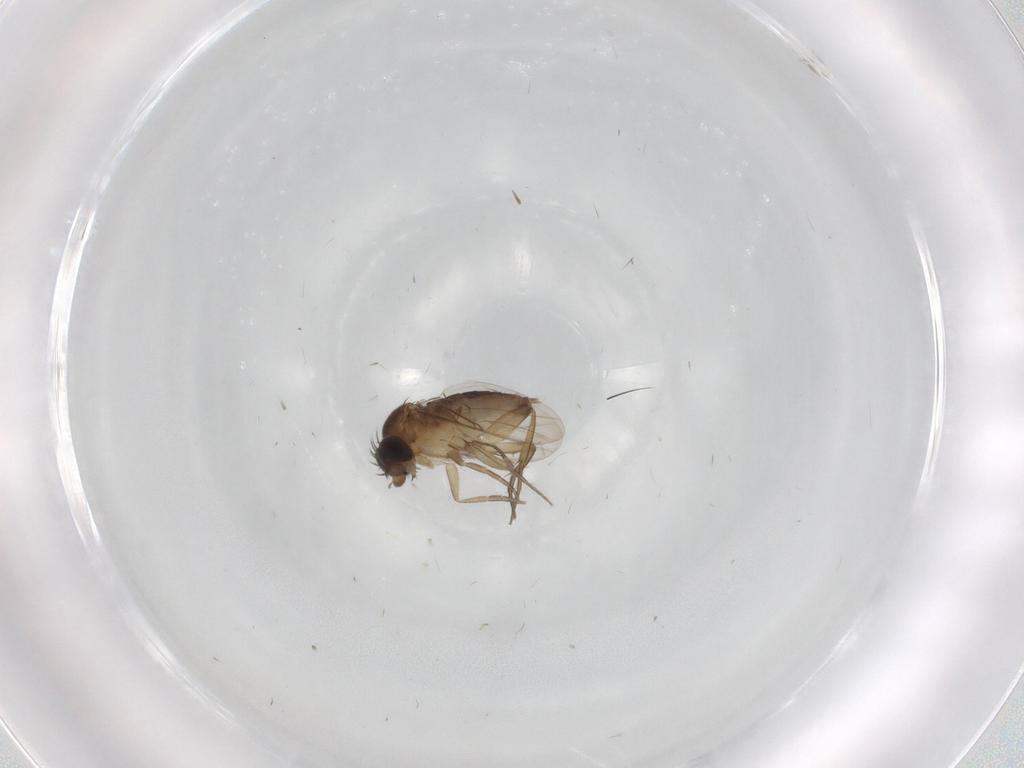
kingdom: Animalia
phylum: Arthropoda
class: Insecta
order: Diptera
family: Phoridae
